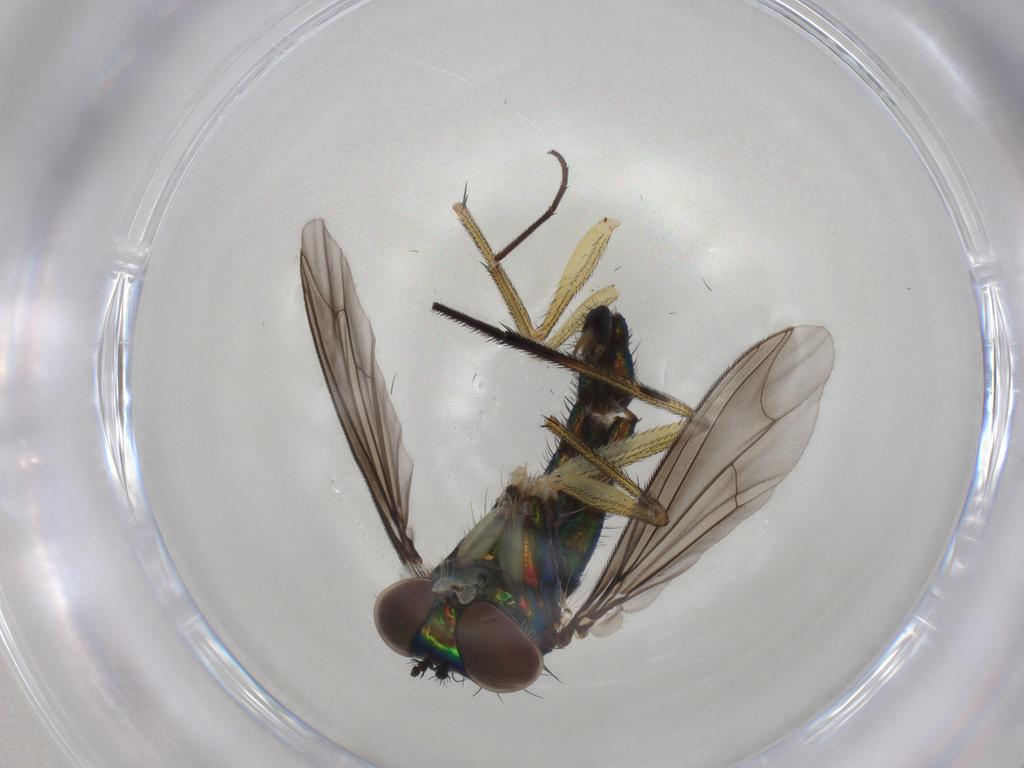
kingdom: Animalia
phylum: Arthropoda
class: Insecta
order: Diptera
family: Dolichopodidae
